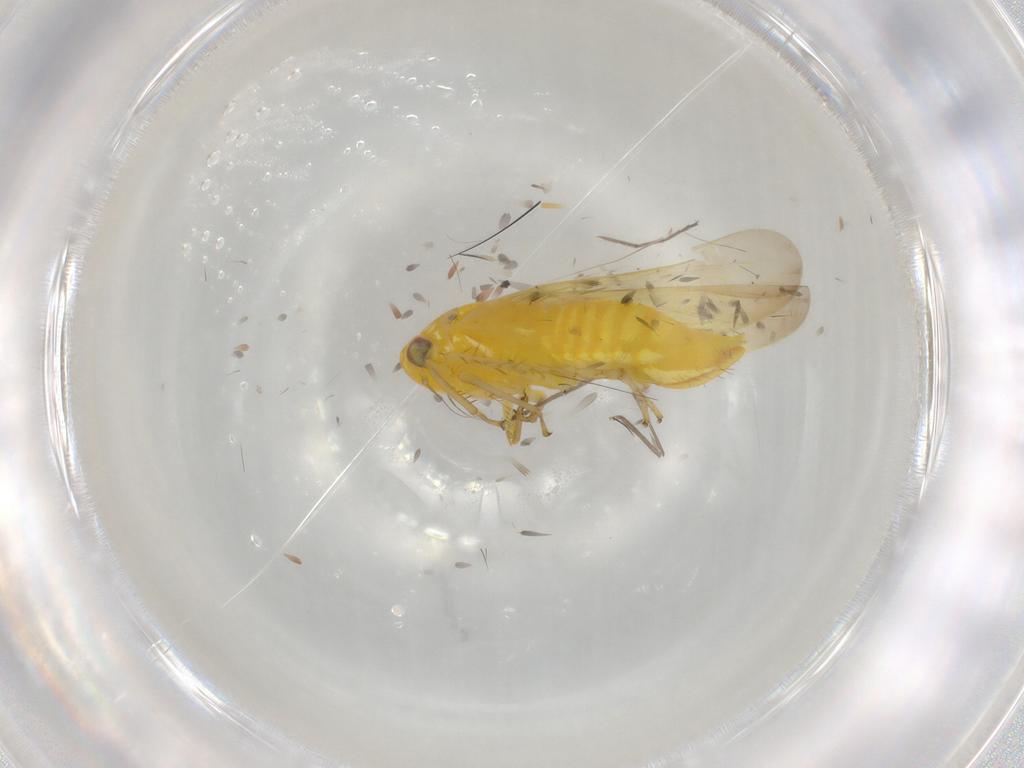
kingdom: Animalia
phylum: Arthropoda
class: Insecta
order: Hemiptera
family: Cicadellidae
